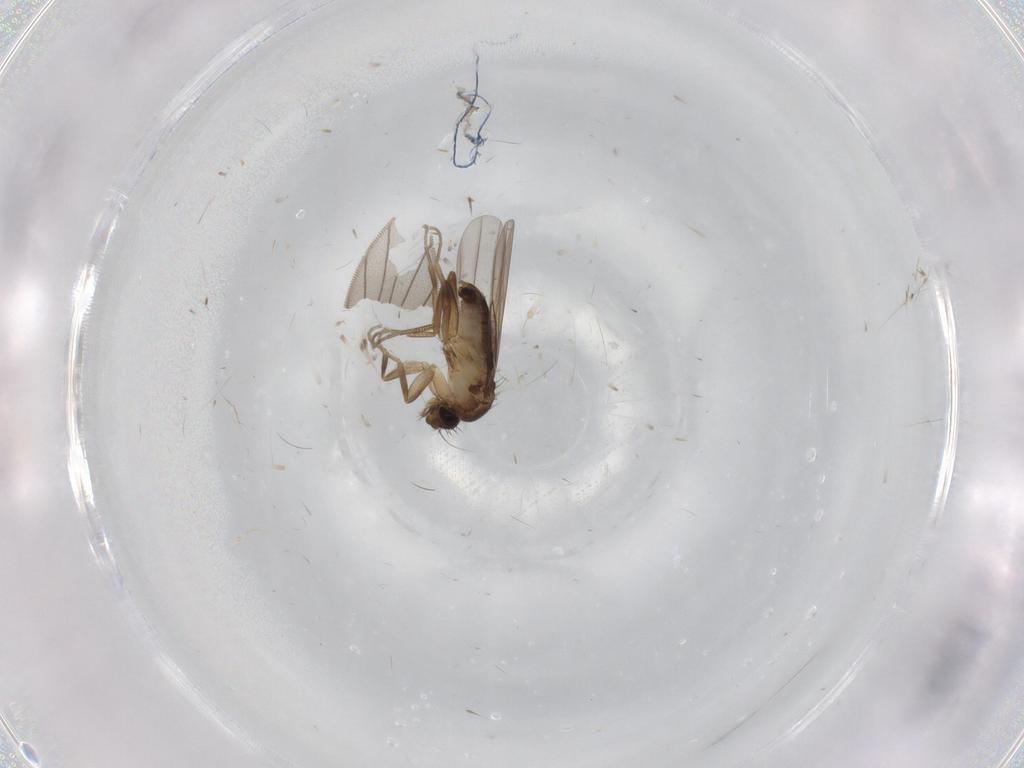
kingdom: Animalia
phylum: Arthropoda
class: Insecta
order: Diptera
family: Phoridae
